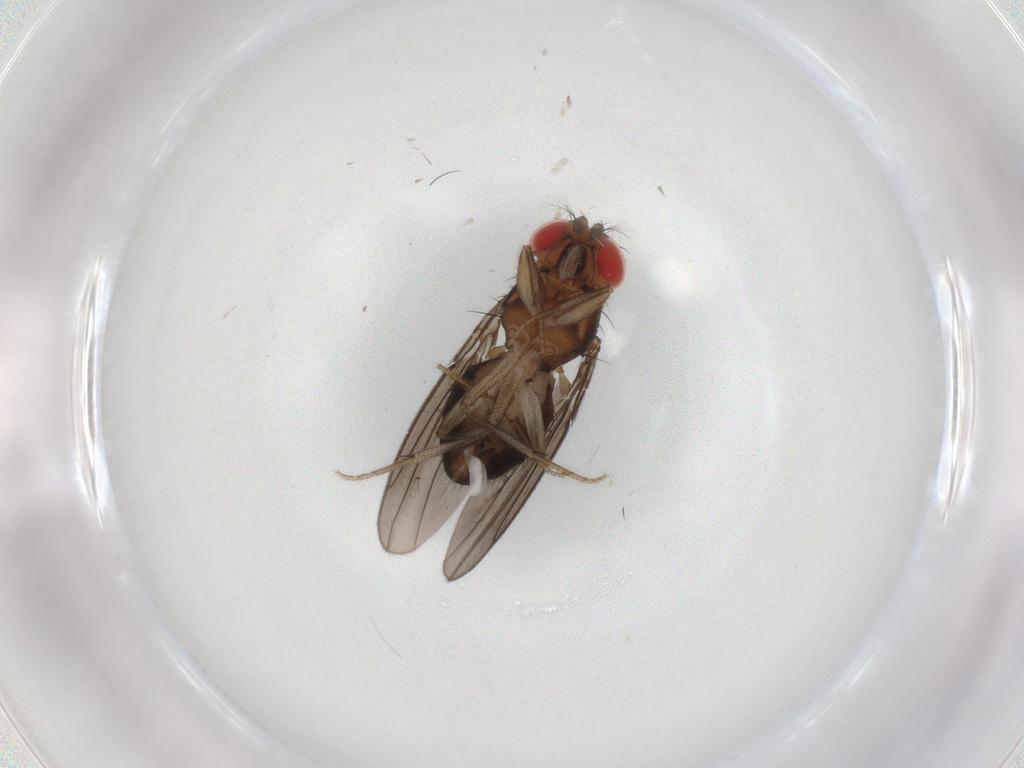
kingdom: Animalia
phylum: Arthropoda
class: Insecta
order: Diptera
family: Drosophilidae
